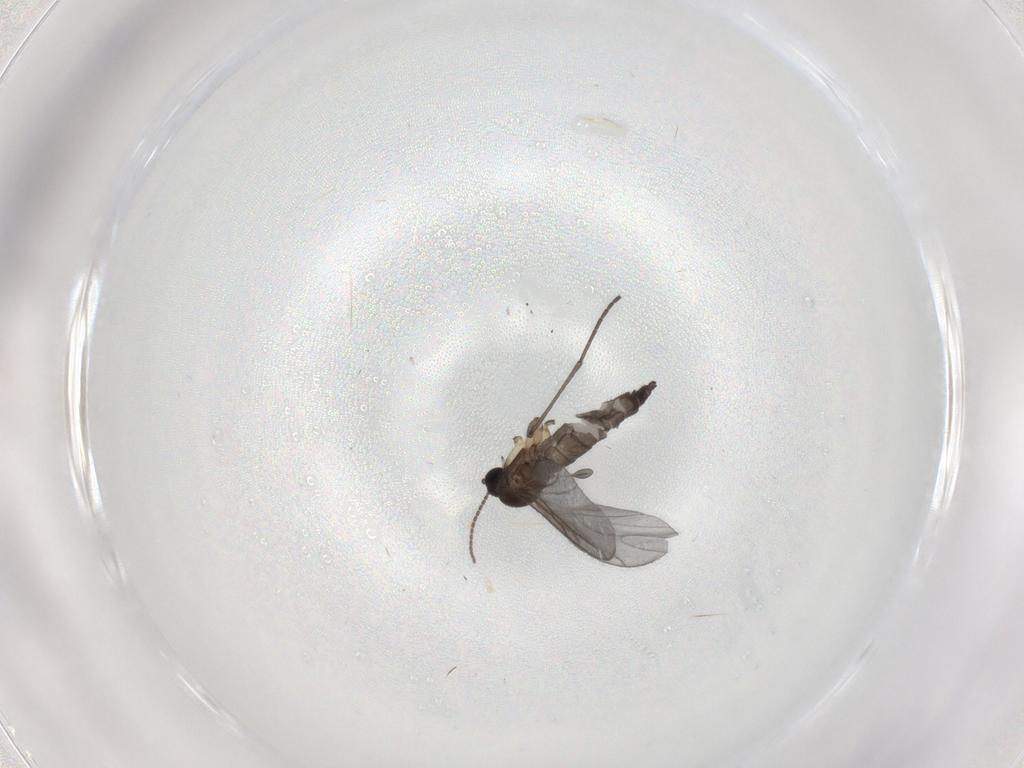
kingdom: Animalia
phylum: Arthropoda
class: Insecta
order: Diptera
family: Sciaridae
